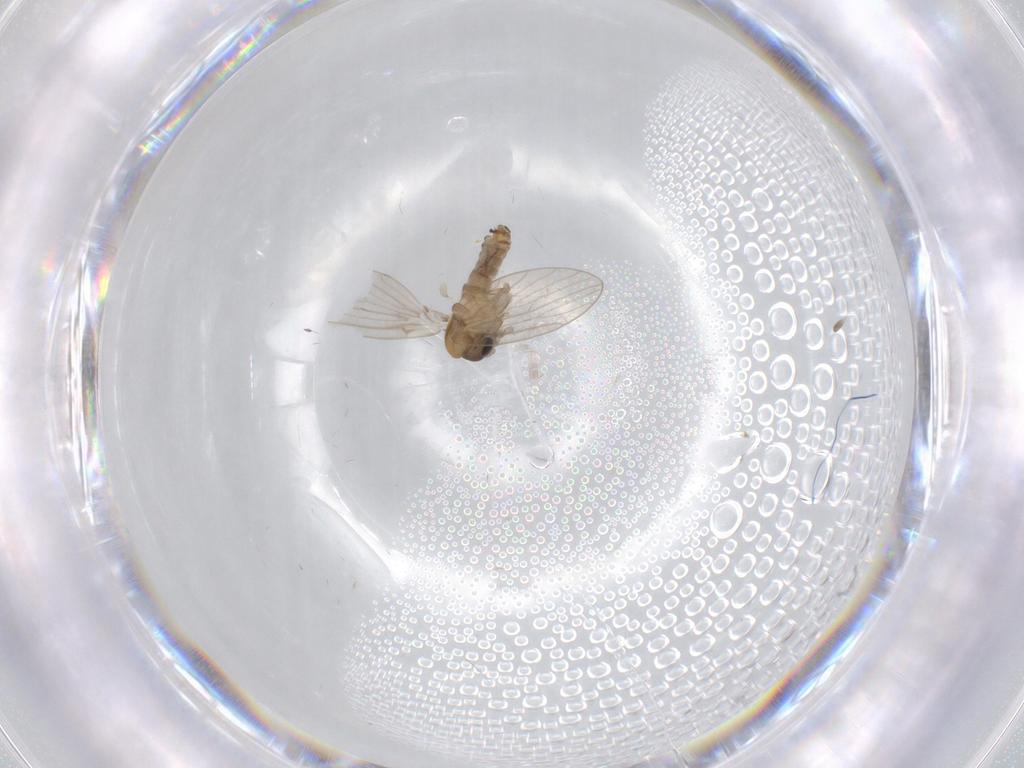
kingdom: Animalia
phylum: Arthropoda
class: Insecta
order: Diptera
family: Psychodidae
